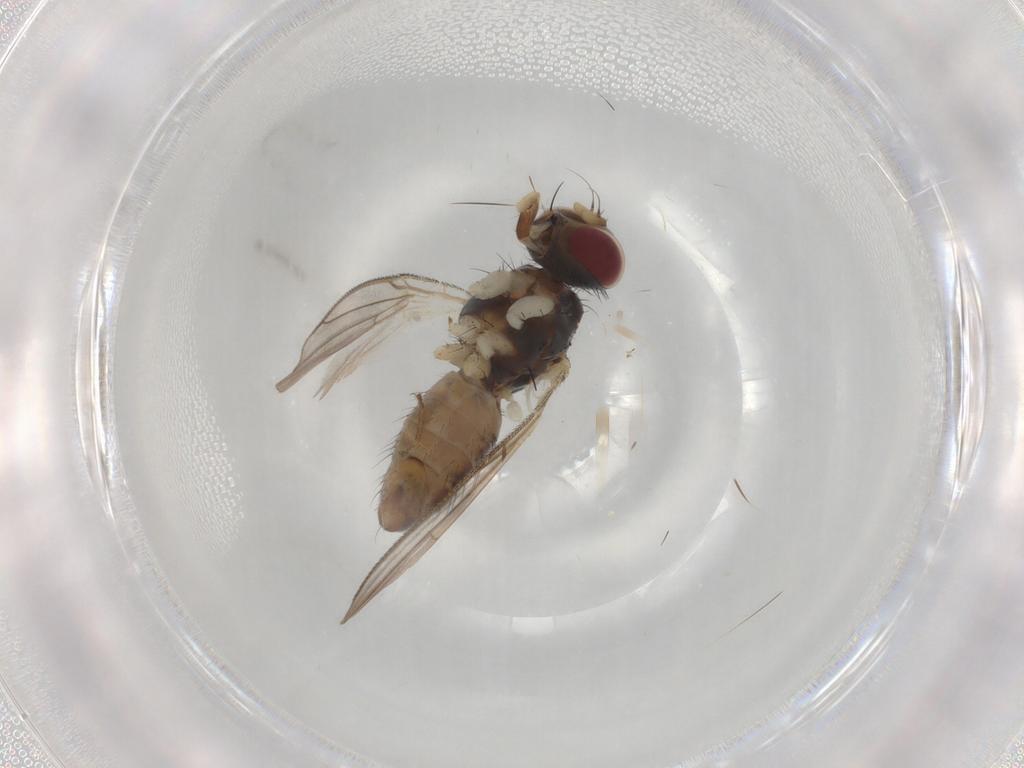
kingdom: Animalia
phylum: Arthropoda
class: Insecta
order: Diptera
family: Muscidae
